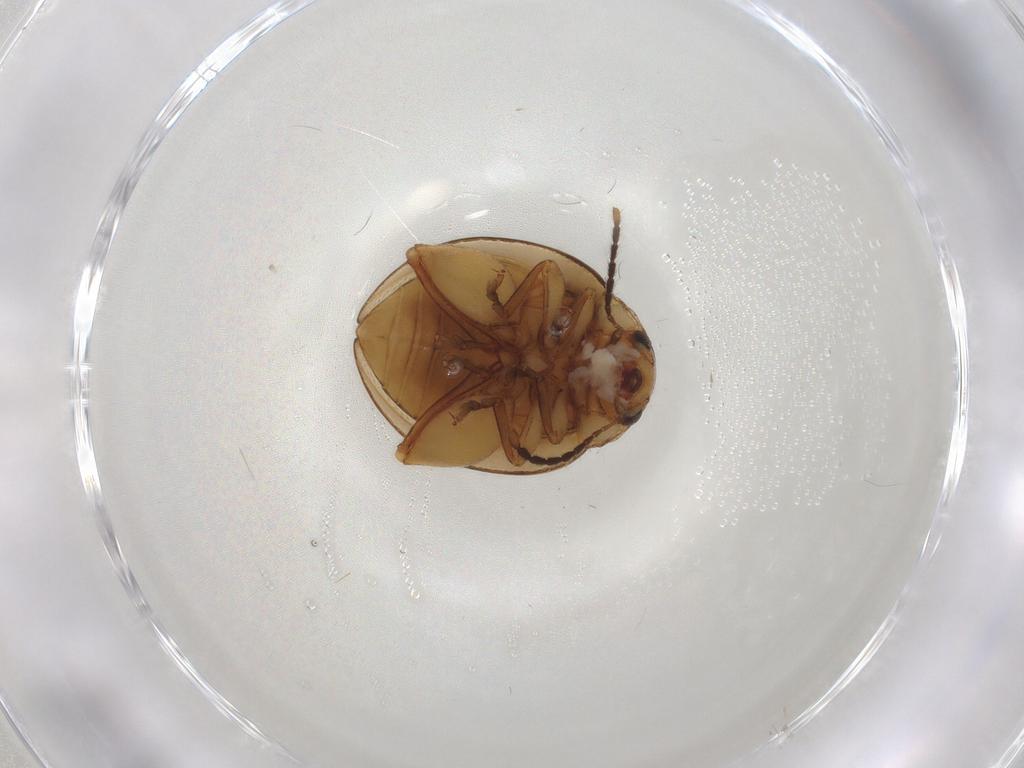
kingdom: Animalia
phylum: Arthropoda
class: Insecta
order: Coleoptera
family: Chrysomelidae
